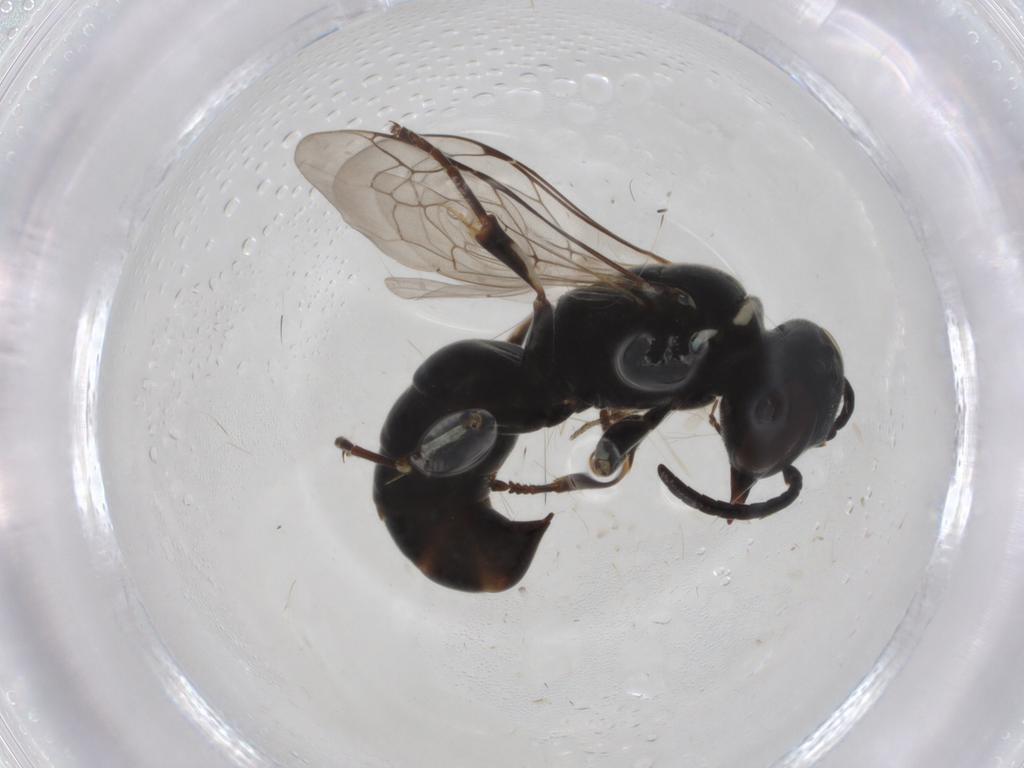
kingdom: Animalia
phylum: Arthropoda
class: Insecta
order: Hymenoptera
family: Crabronidae
